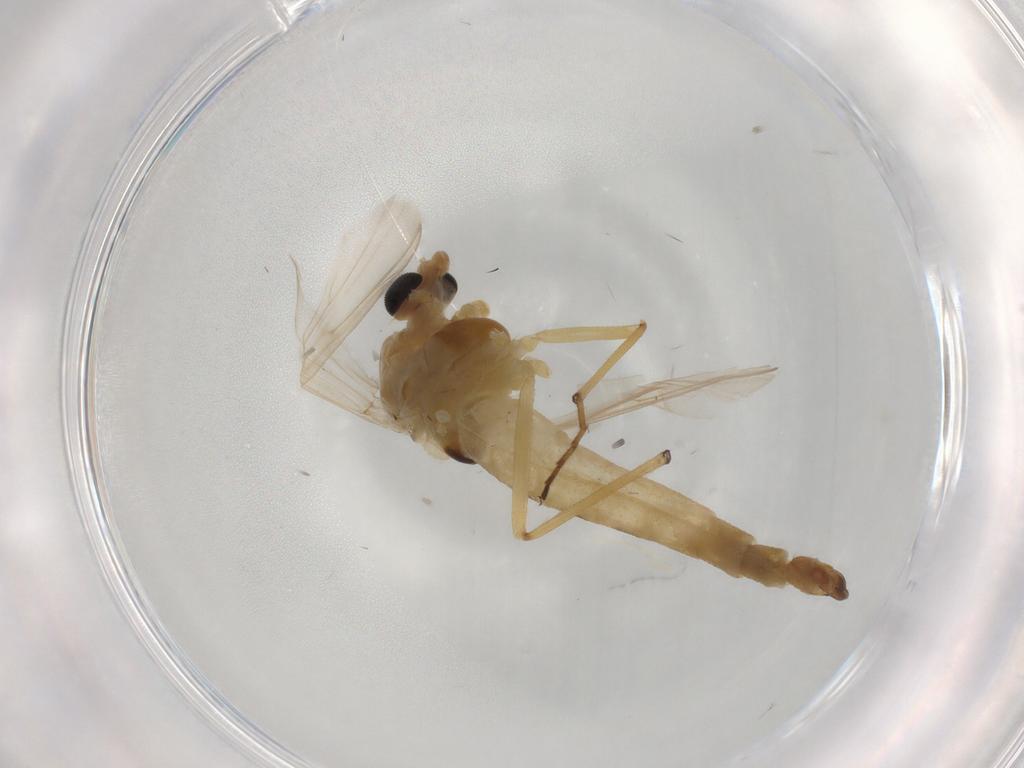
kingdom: Animalia
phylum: Arthropoda
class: Insecta
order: Diptera
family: Chironomidae
